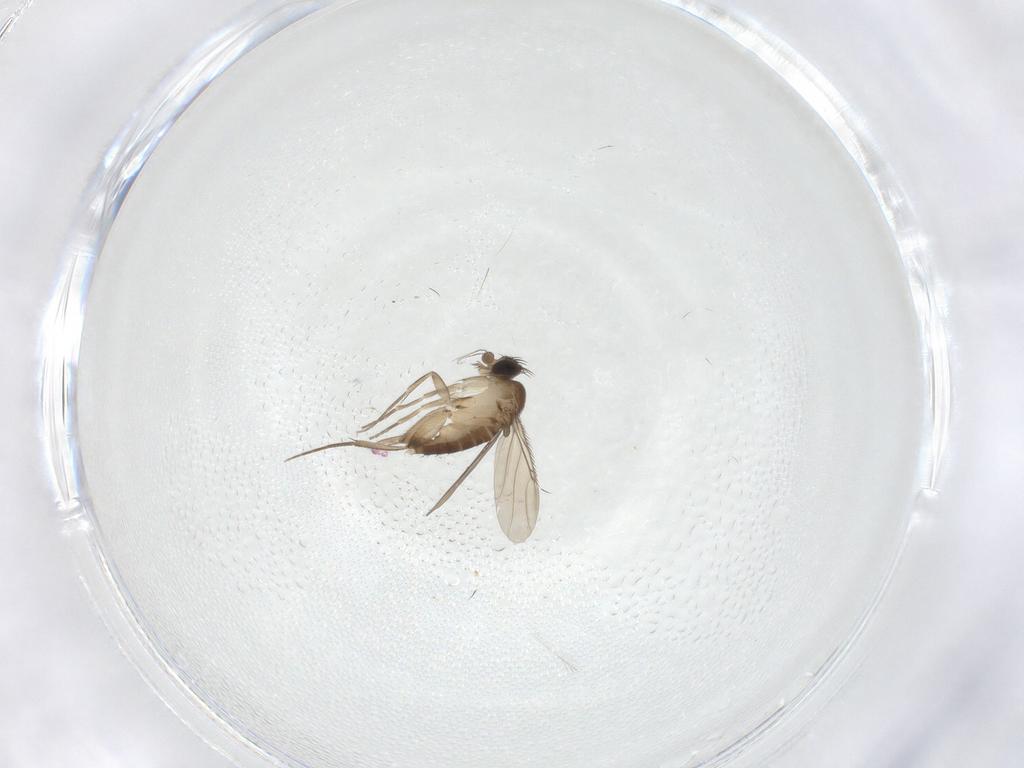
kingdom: Animalia
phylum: Arthropoda
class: Insecta
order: Diptera
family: Phoridae
